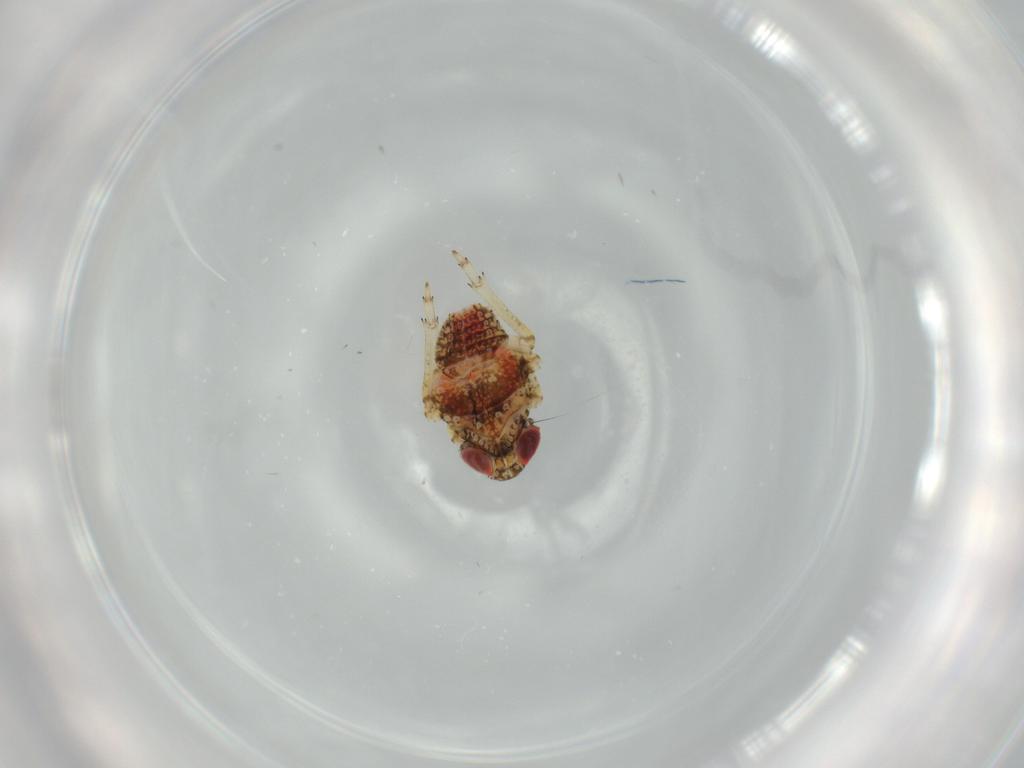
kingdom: Animalia
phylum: Arthropoda
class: Insecta
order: Hemiptera
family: Issidae
